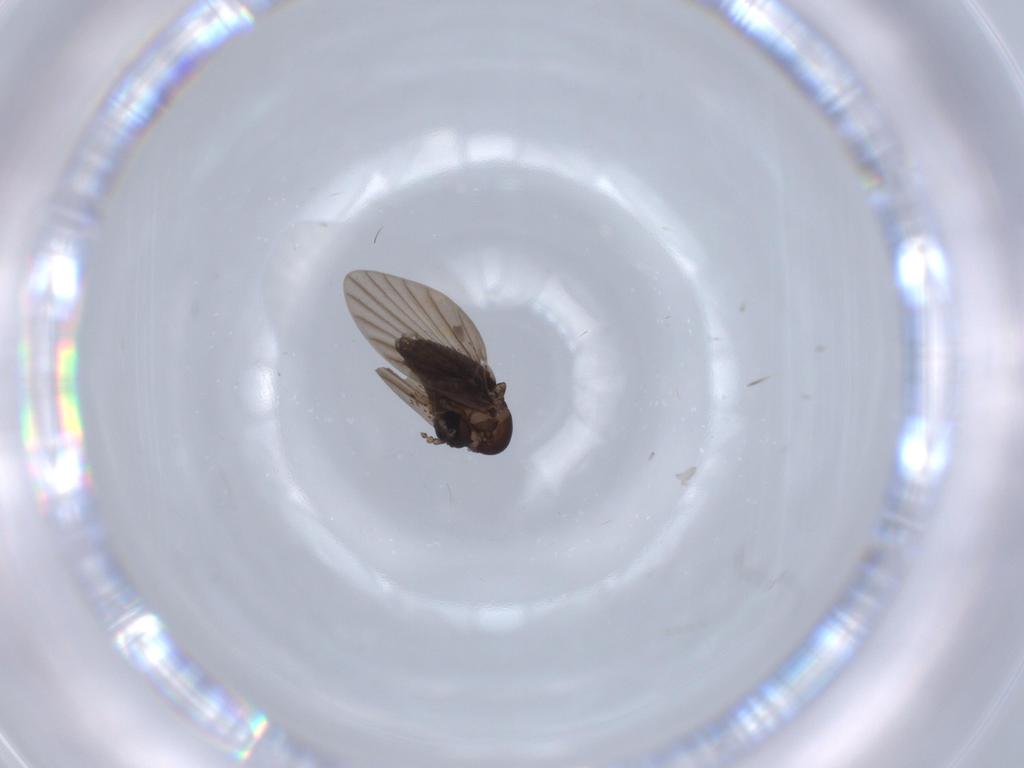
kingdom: Animalia
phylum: Arthropoda
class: Insecta
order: Diptera
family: Psychodidae
